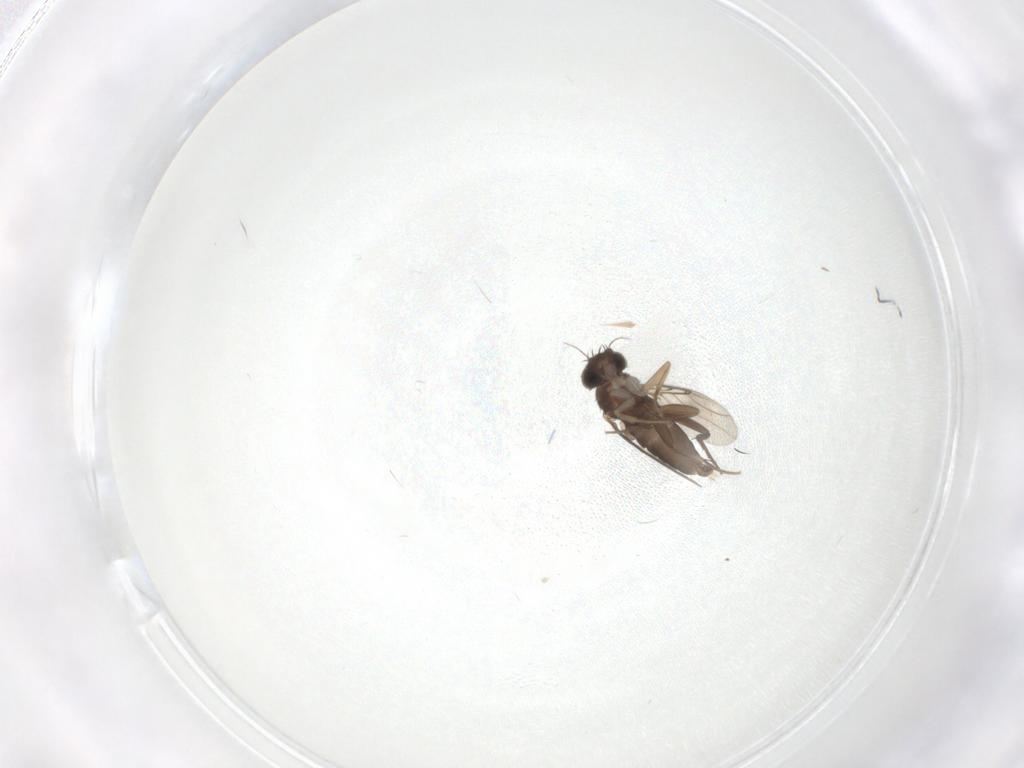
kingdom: Animalia
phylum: Arthropoda
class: Insecta
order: Diptera
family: Phoridae
